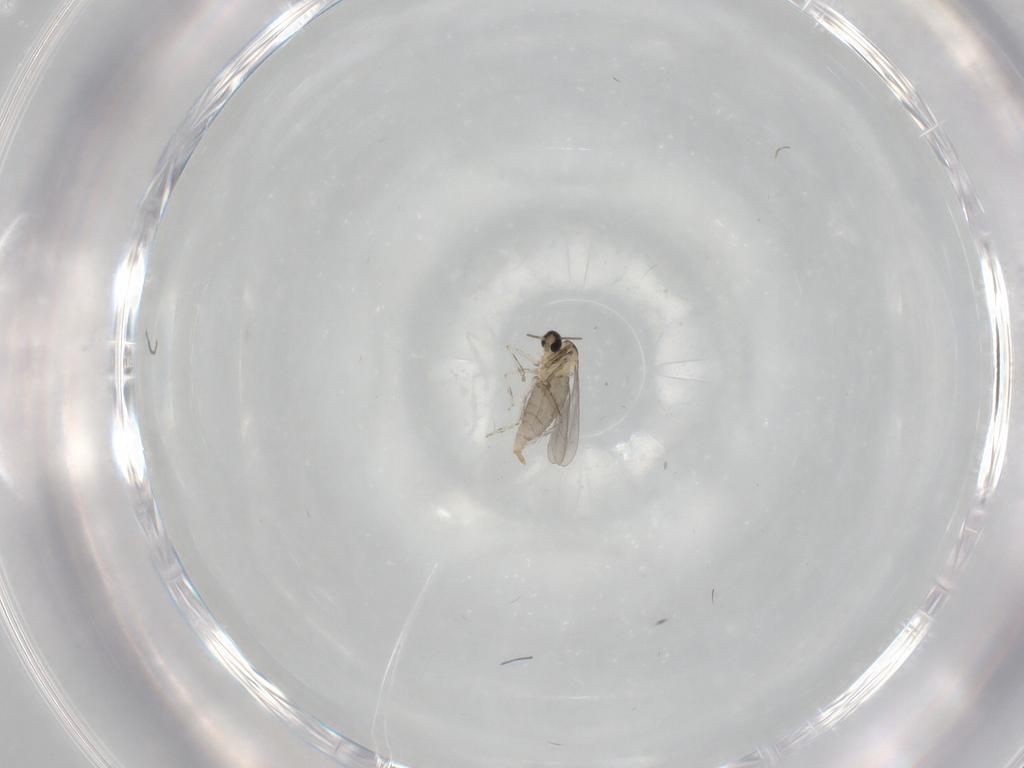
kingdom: Animalia
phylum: Arthropoda
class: Insecta
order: Diptera
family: Cecidomyiidae
